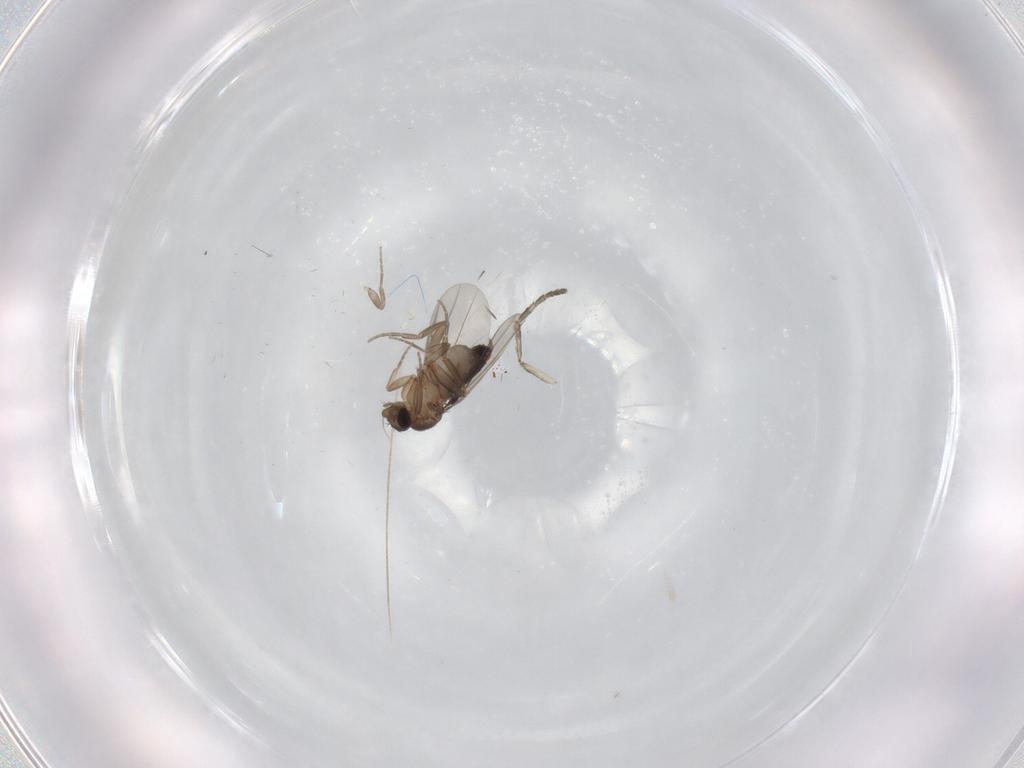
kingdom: Animalia
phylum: Arthropoda
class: Insecta
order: Diptera
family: Phoridae
